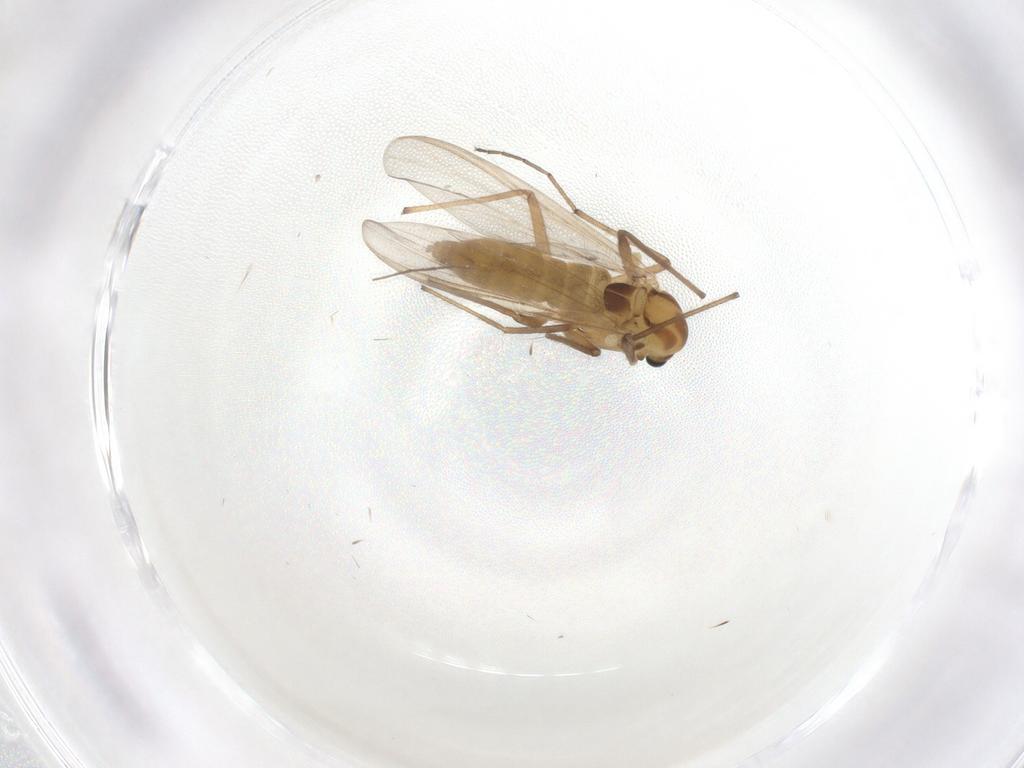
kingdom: Animalia
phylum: Arthropoda
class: Insecta
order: Diptera
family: Chironomidae
